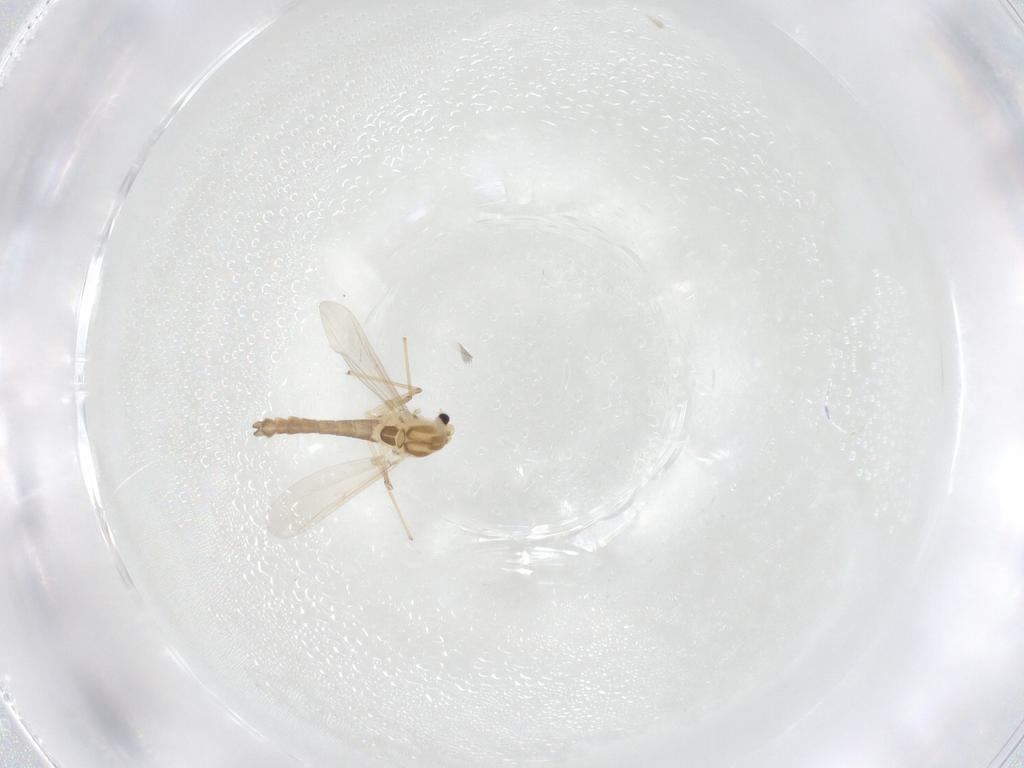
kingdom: Animalia
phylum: Arthropoda
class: Insecta
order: Diptera
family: Chironomidae
